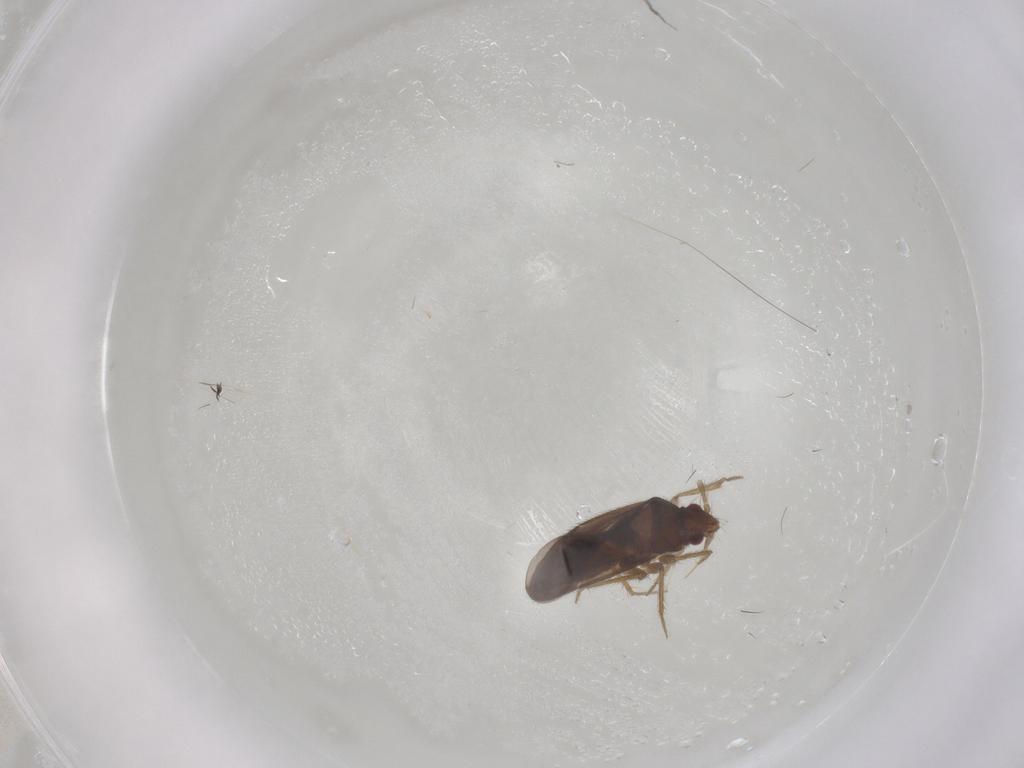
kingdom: Animalia
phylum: Arthropoda
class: Insecta
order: Hemiptera
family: Ceratocombidae
